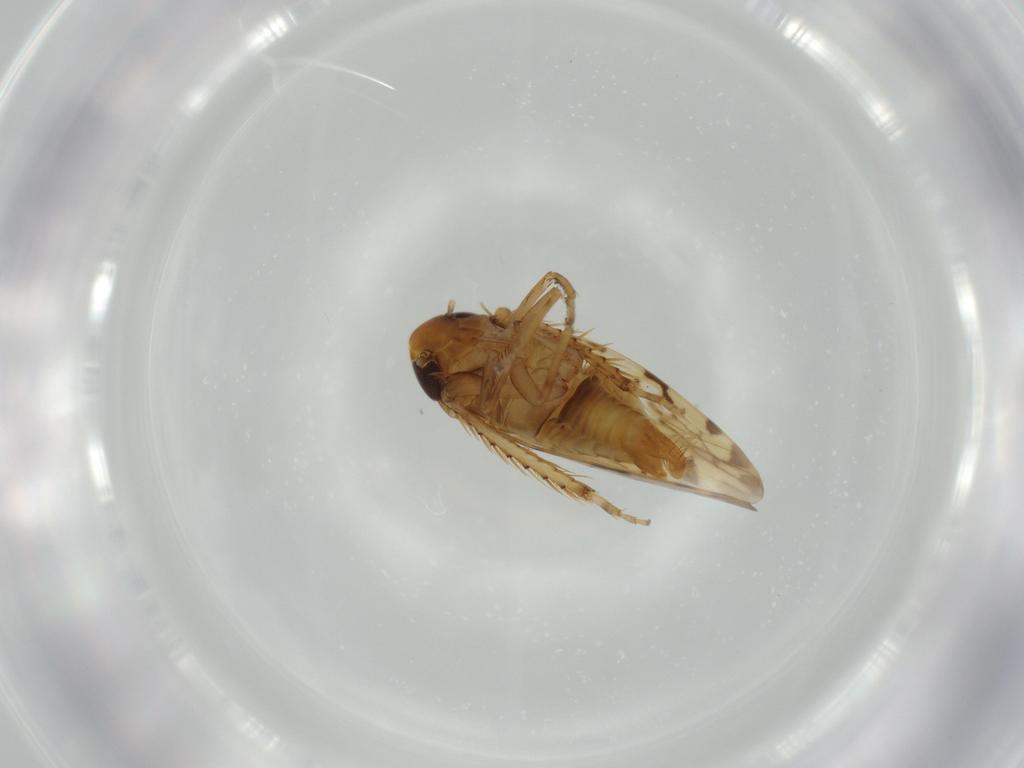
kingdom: Animalia
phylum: Arthropoda
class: Insecta
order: Hemiptera
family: Cicadellidae
